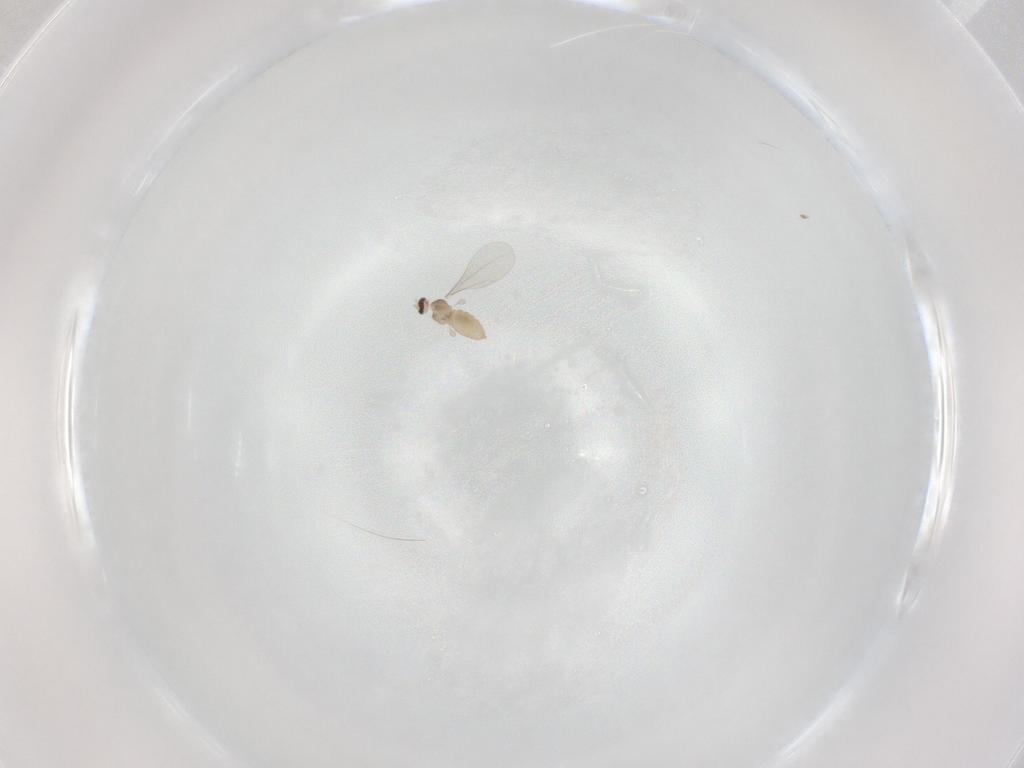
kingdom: Animalia
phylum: Arthropoda
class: Insecta
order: Diptera
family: Cecidomyiidae
